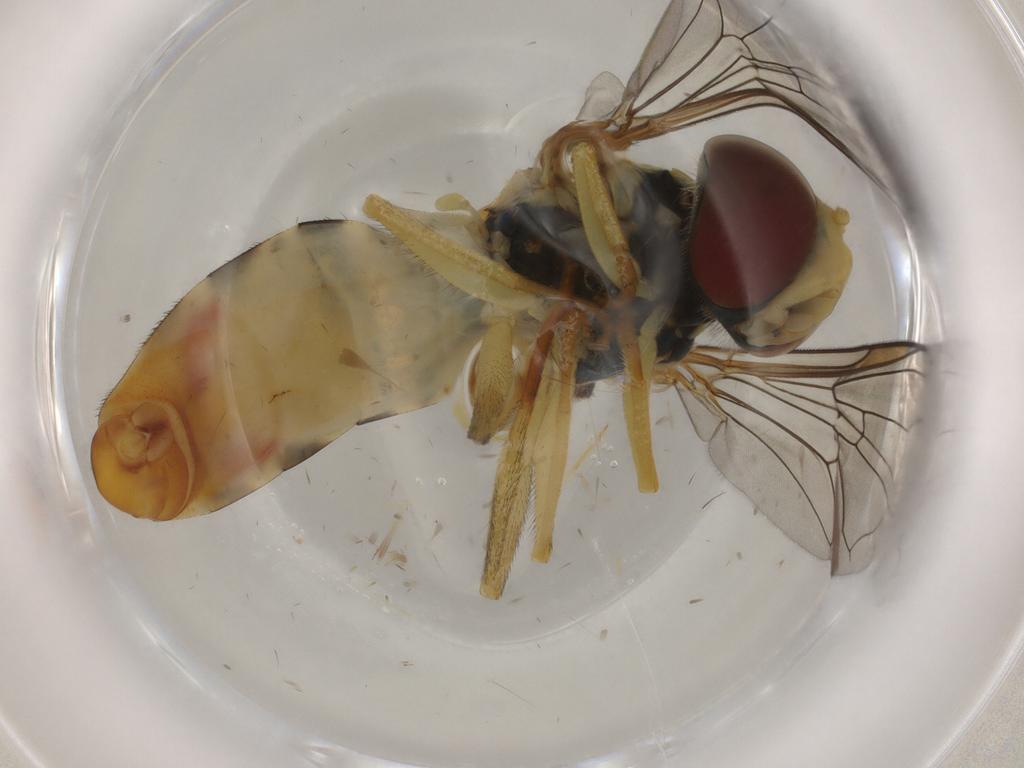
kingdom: Animalia
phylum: Arthropoda
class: Insecta
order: Diptera
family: Syrphidae
